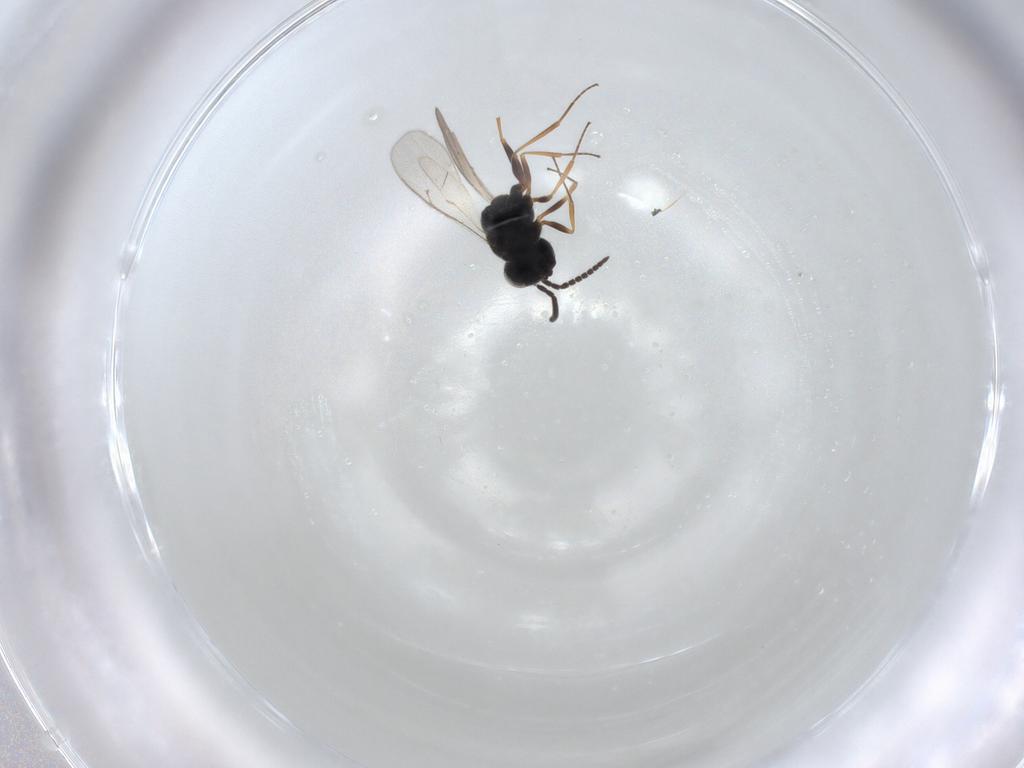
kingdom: Animalia
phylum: Arthropoda
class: Insecta
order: Hymenoptera
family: Scelionidae
